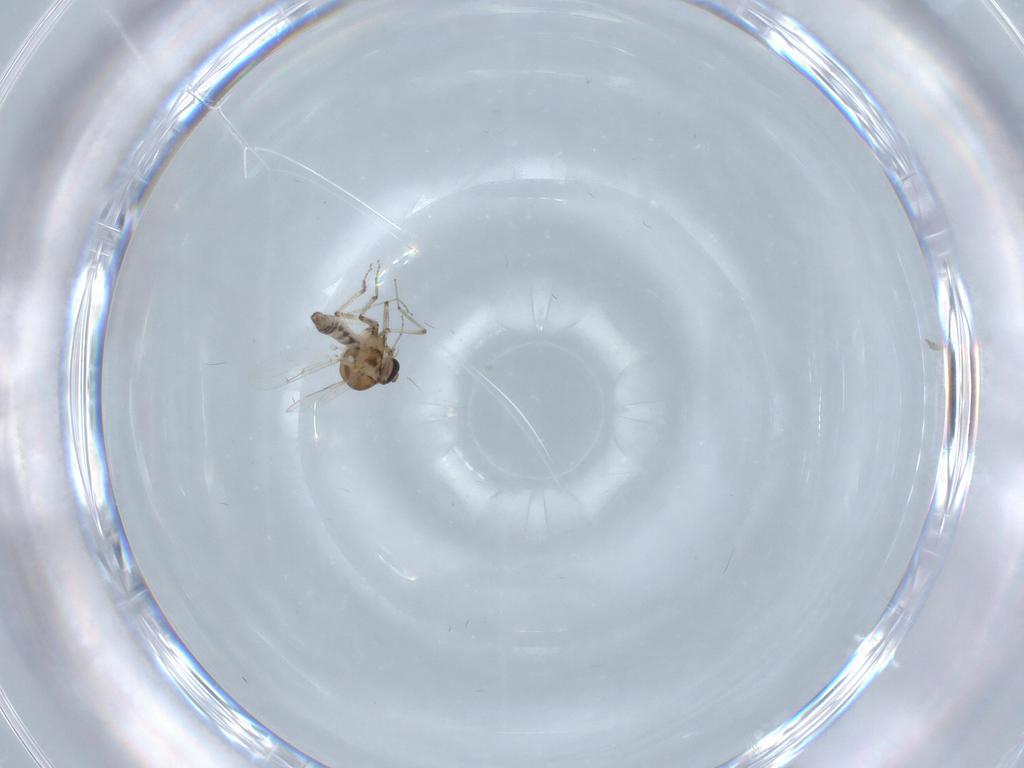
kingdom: Animalia
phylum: Arthropoda
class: Insecta
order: Diptera
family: Ceratopogonidae
